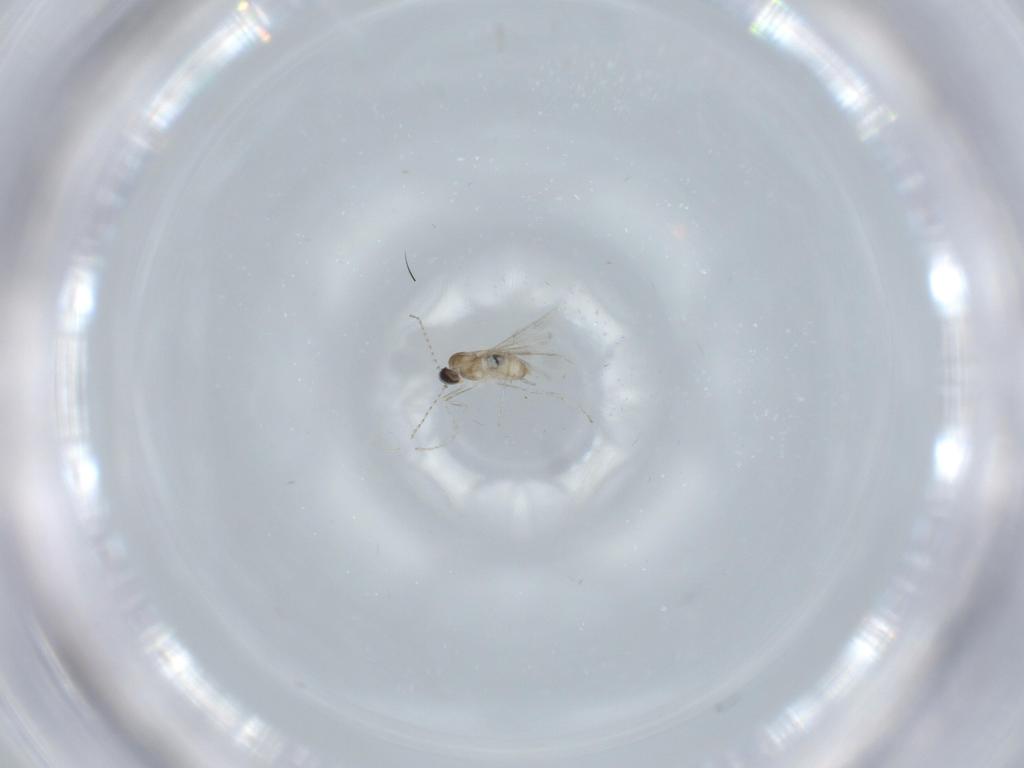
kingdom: Animalia
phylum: Arthropoda
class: Insecta
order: Diptera
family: Cecidomyiidae
